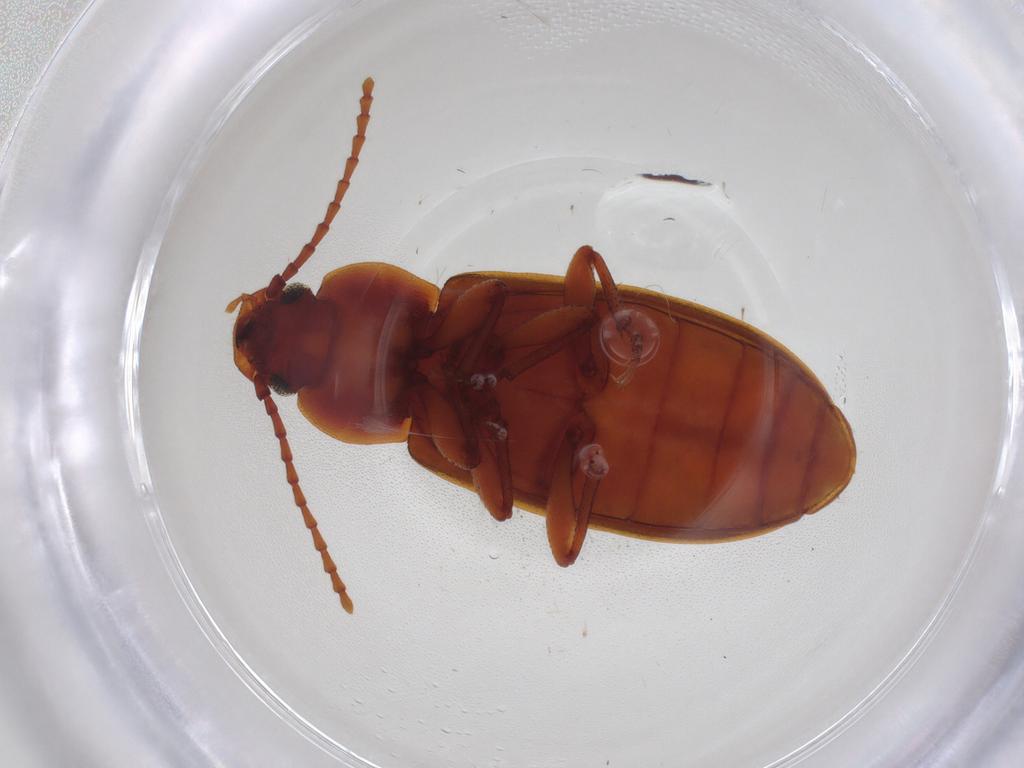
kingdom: Animalia
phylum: Arthropoda
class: Insecta
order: Coleoptera
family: Tenebrionidae
